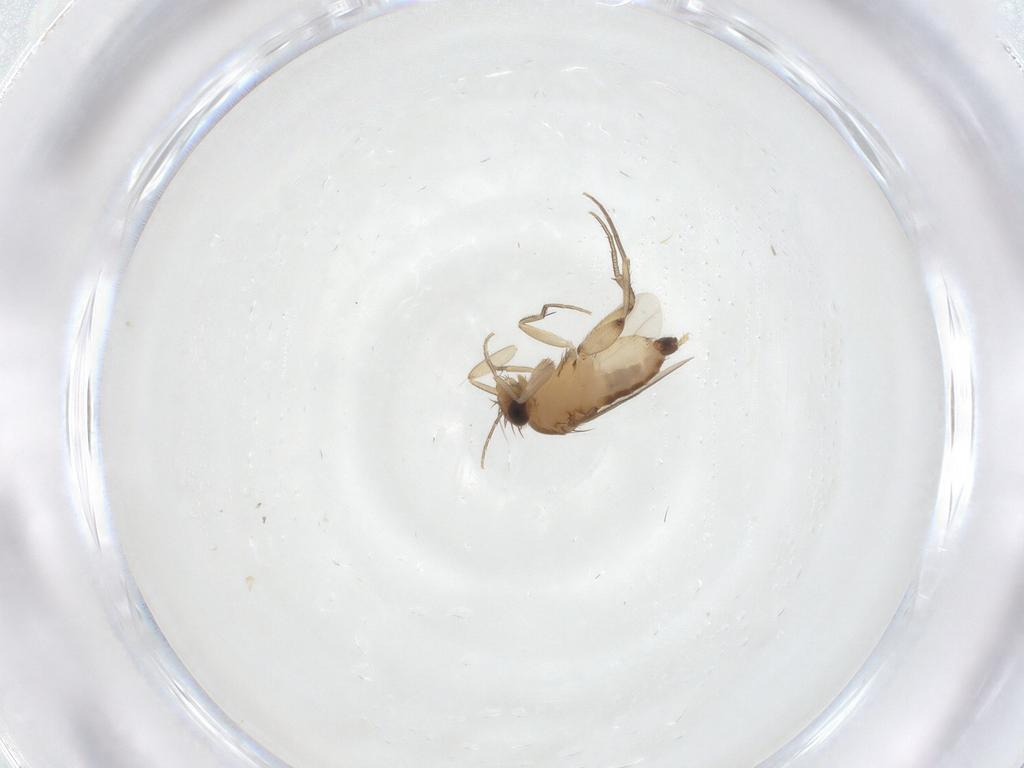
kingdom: Animalia
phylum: Arthropoda
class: Insecta
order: Diptera
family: Phoridae
